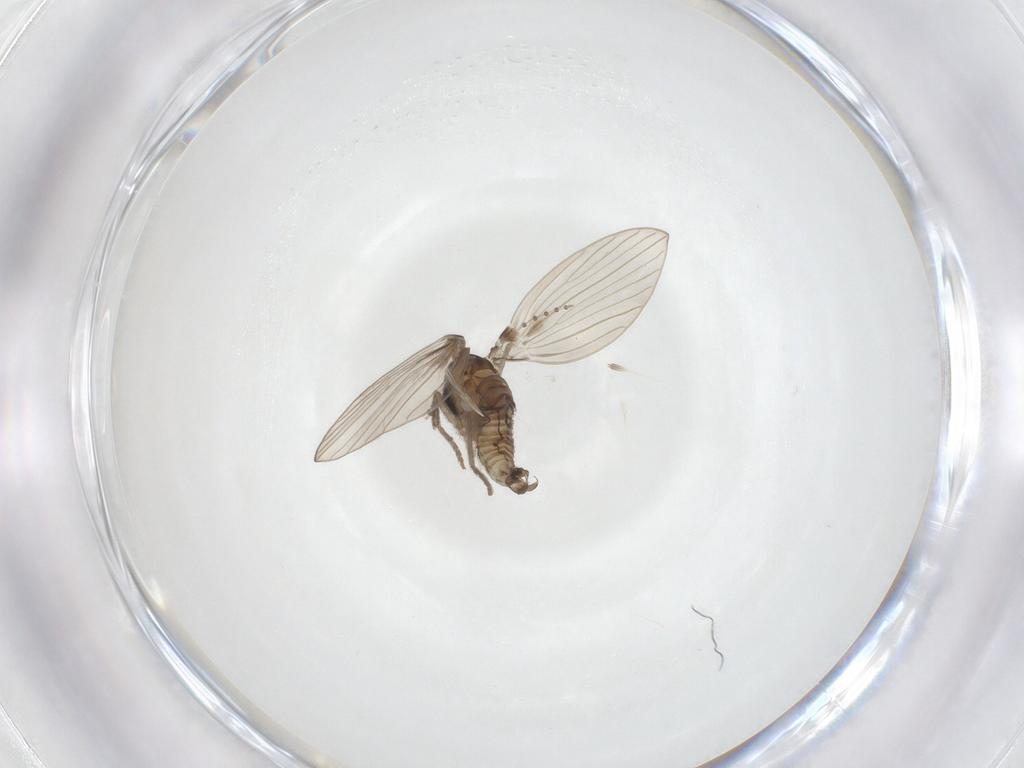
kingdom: Animalia
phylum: Arthropoda
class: Insecta
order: Diptera
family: Psychodidae
